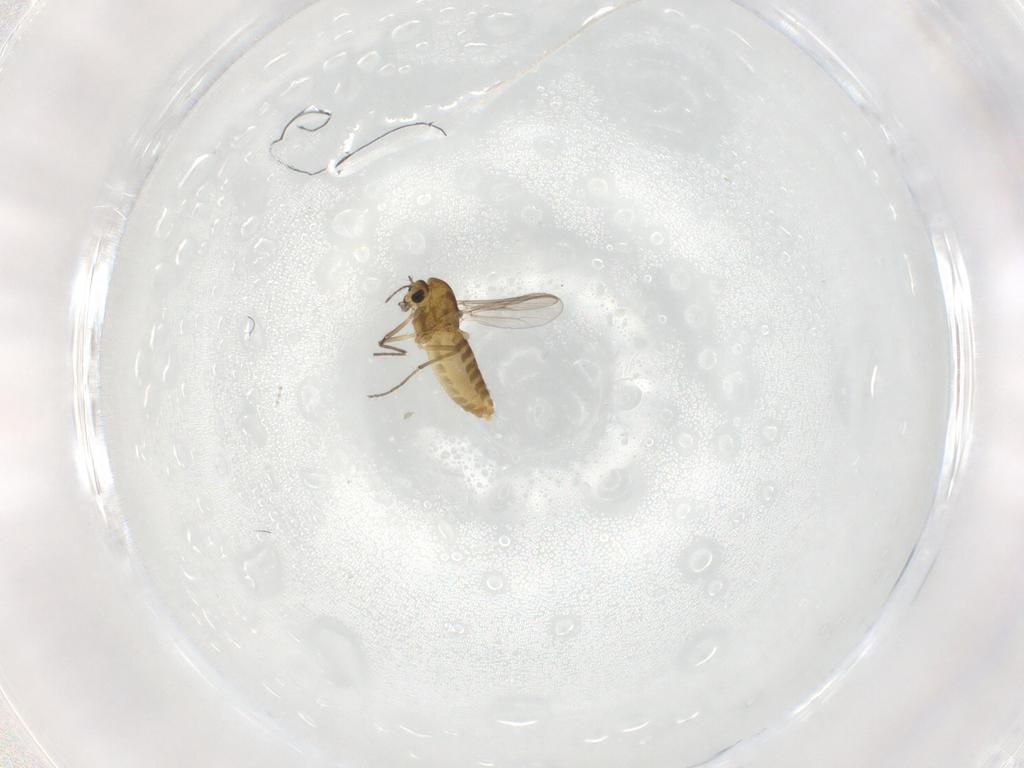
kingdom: Animalia
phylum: Arthropoda
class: Insecta
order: Diptera
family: Chironomidae
